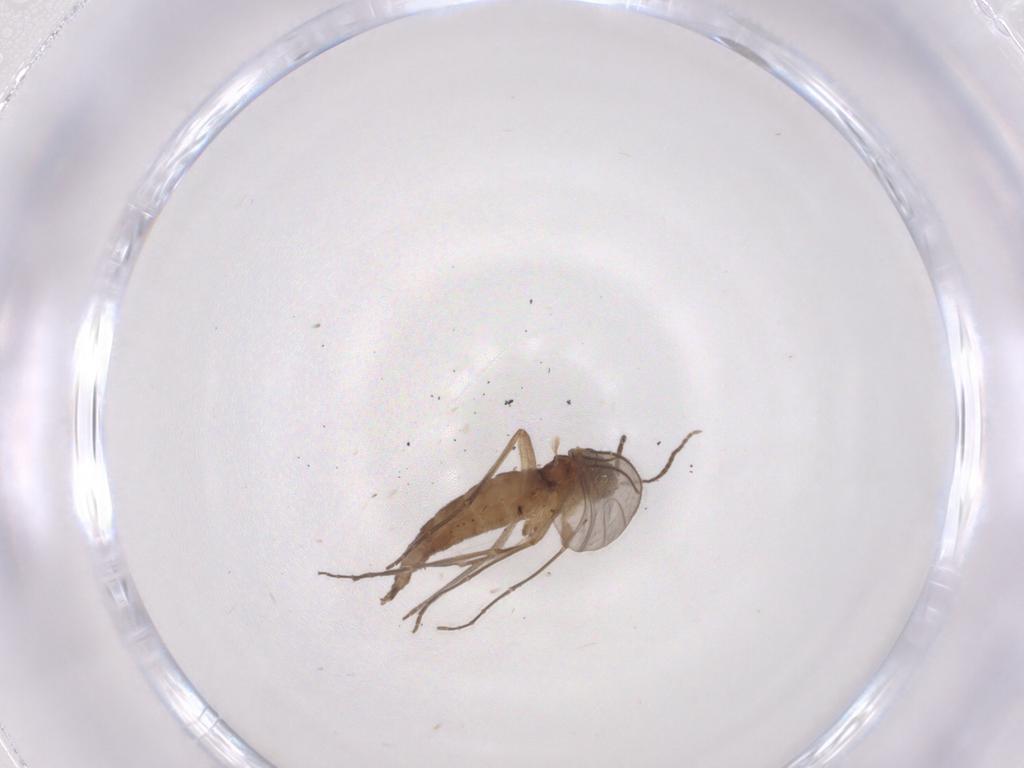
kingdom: Animalia
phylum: Arthropoda
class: Insecta
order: Diptera
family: Sciaridae
